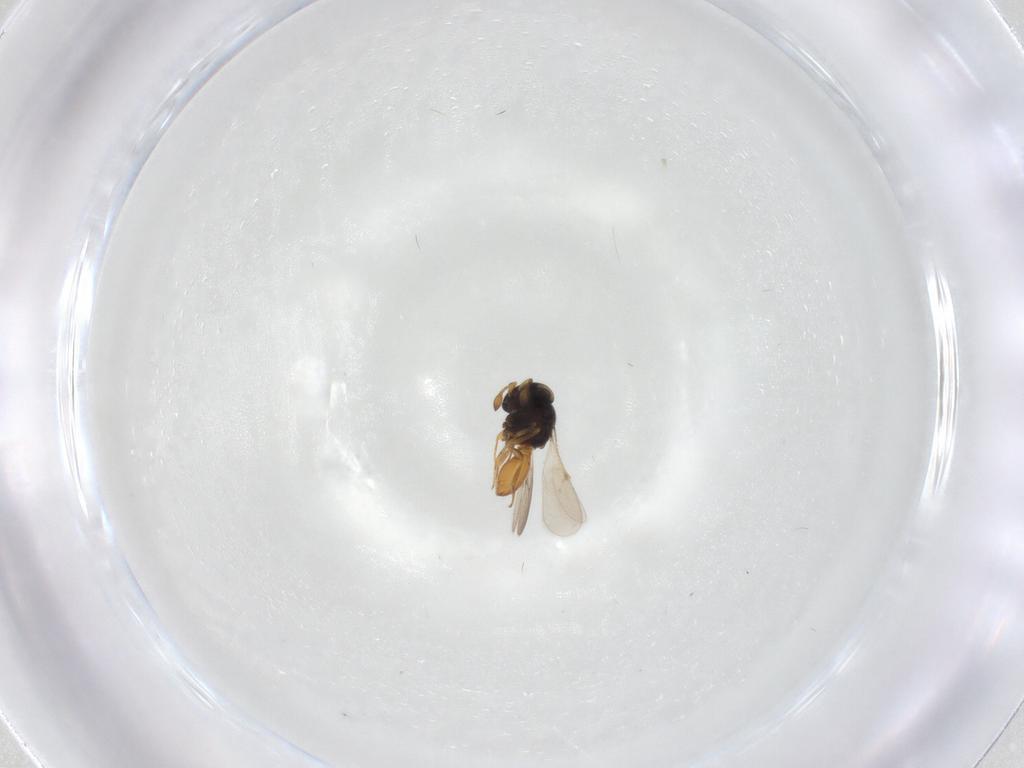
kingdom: Animalia
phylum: Arthropoda
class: Insecta
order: Hymenoptera
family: Scelionidae
